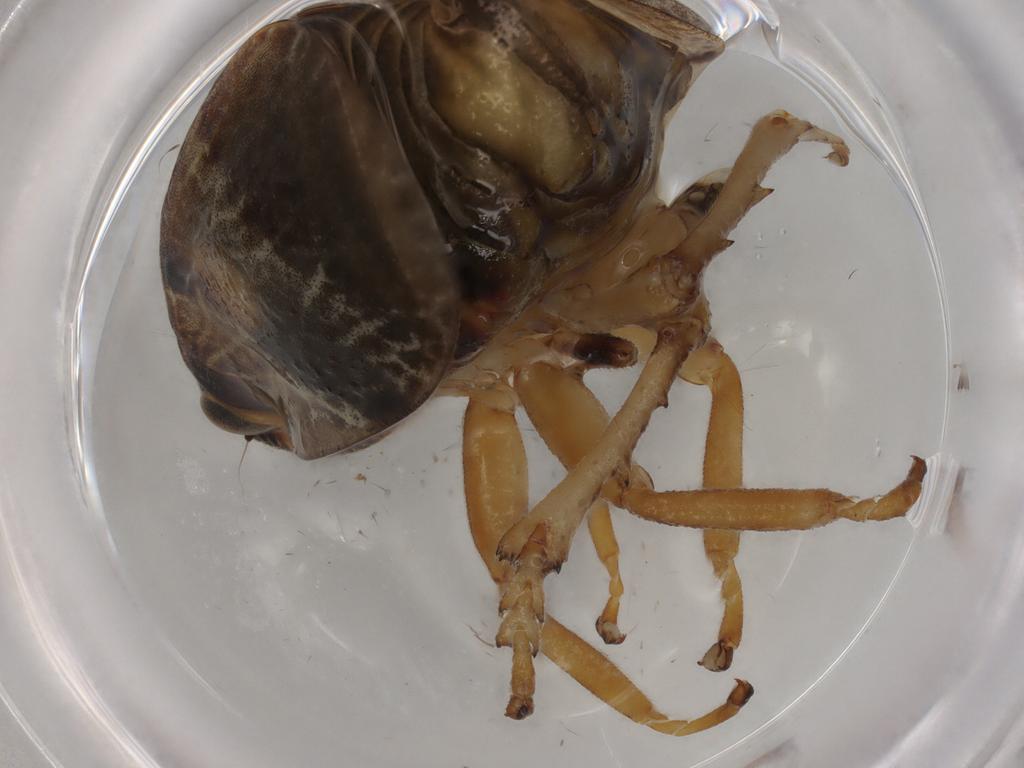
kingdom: Animalia
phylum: Arthropoda
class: Insecta
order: Hemiptera
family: Aphrophoridae
